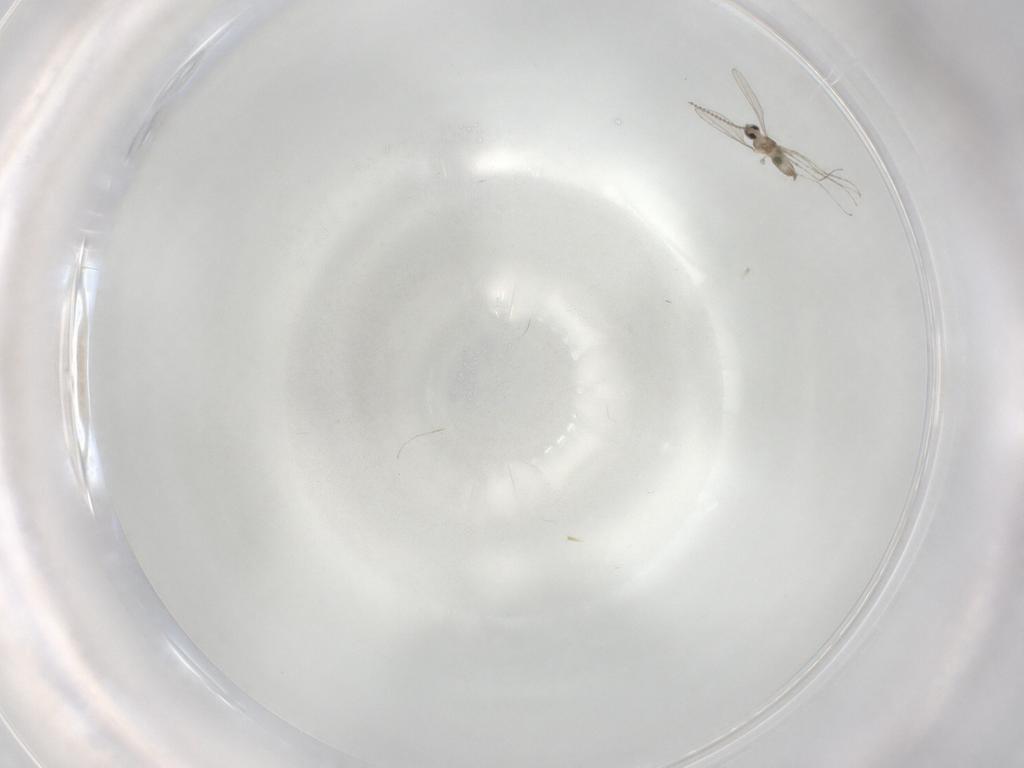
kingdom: Animalia
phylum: Arthropoda
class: Insecta
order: Diptera
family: Cecidomyiidae
